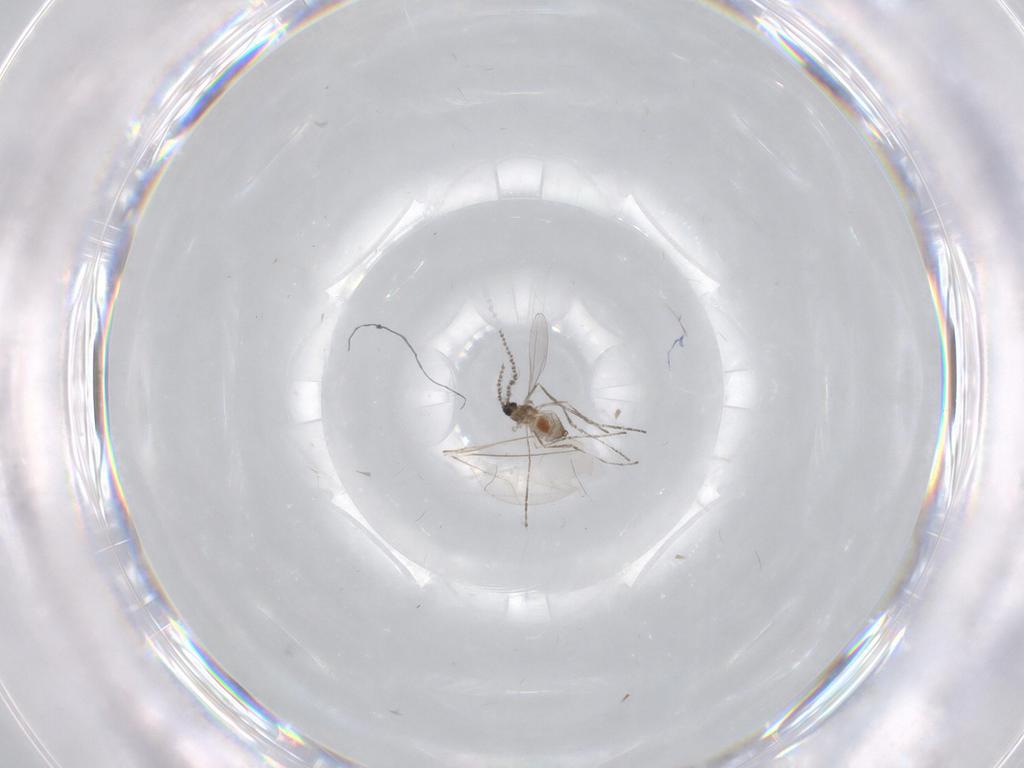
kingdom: Animalia
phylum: Arthropoda
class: Insecta
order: Diptera
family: Cecidomyiidae
